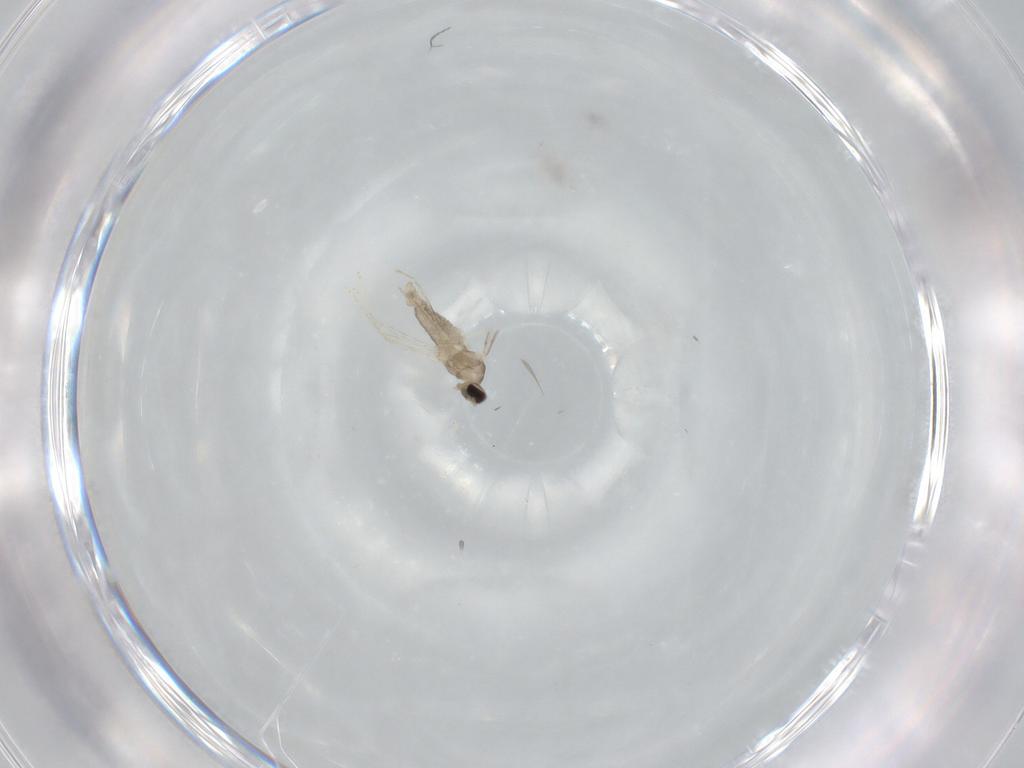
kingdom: Animalia
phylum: Arthropoda
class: Insecta
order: Diptera
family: Cecidomyiidae
